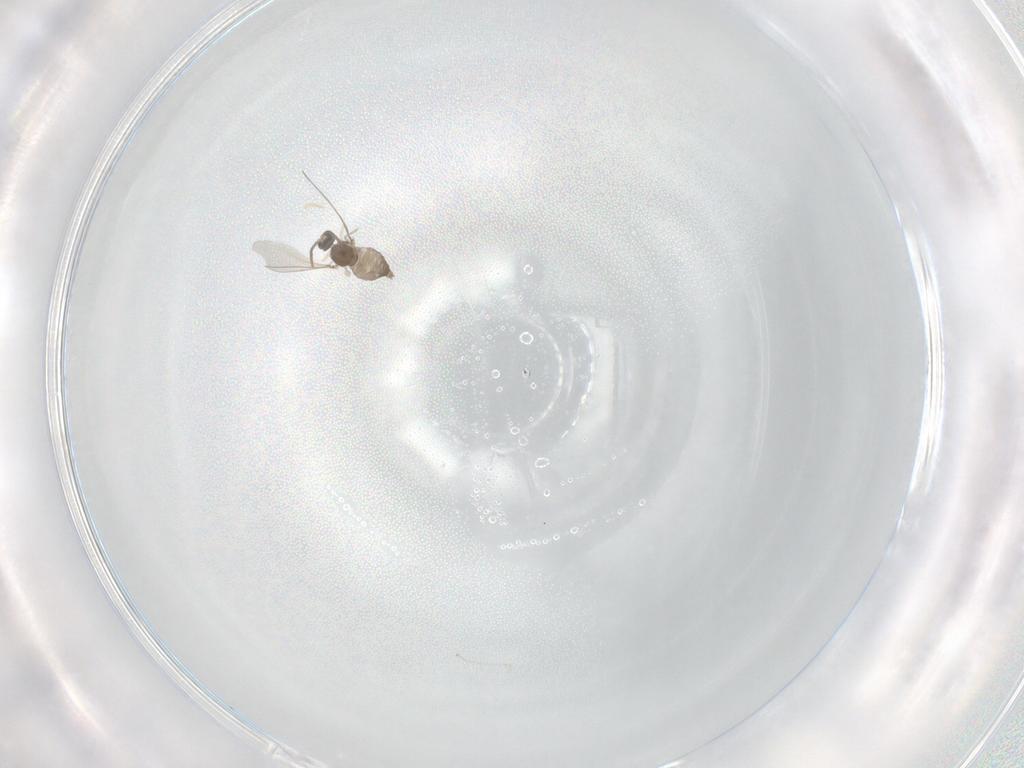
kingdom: Animalia
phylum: Arthropoda
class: Insecta
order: Diptera
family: Cecidomyiidae
